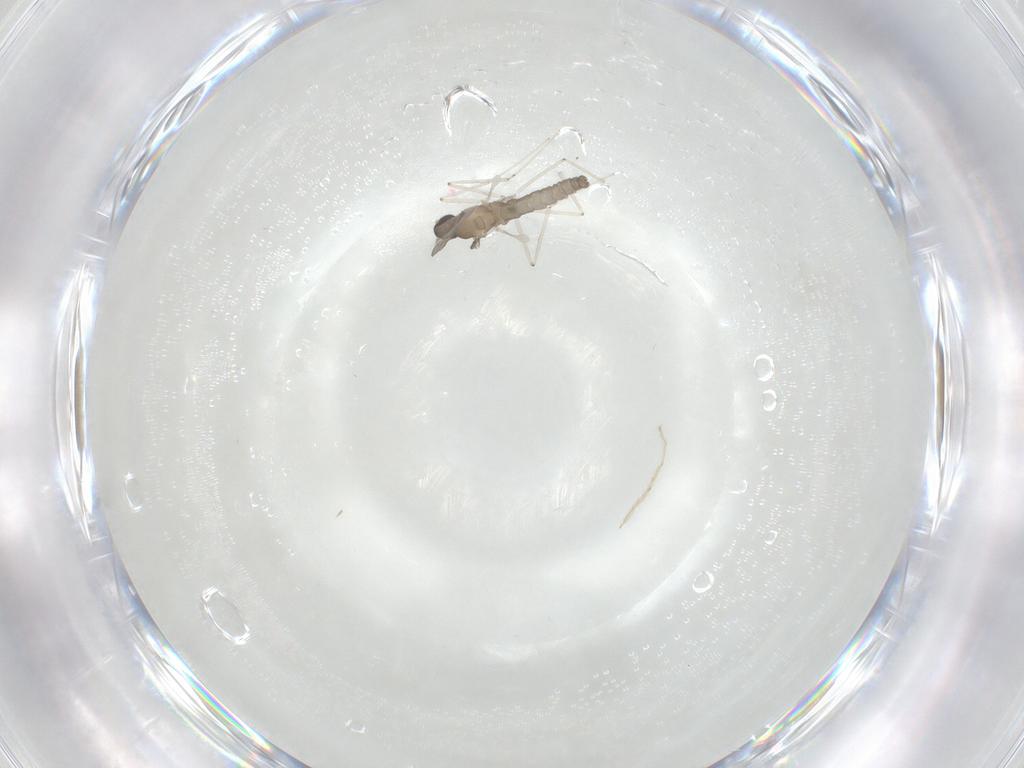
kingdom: Animalia
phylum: Arthropoda
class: Insecta
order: Diptera
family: Cecidomyiidae
